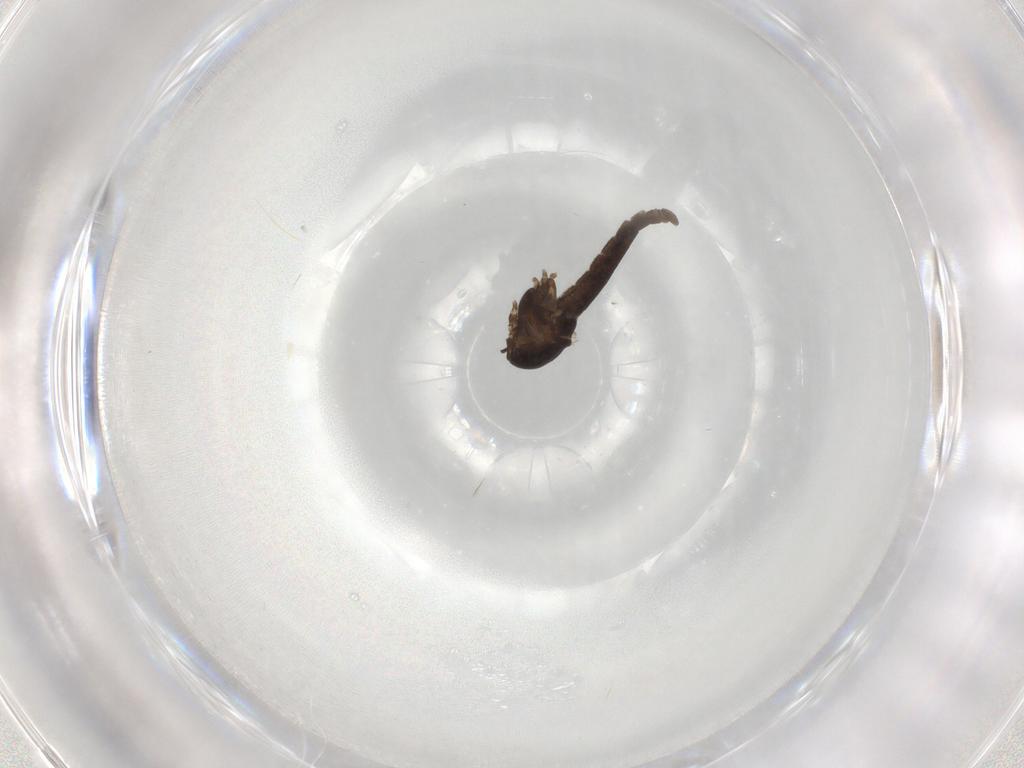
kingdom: Animalia
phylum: Arthropoda
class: Insecta
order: Diptera
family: Chironomidae
